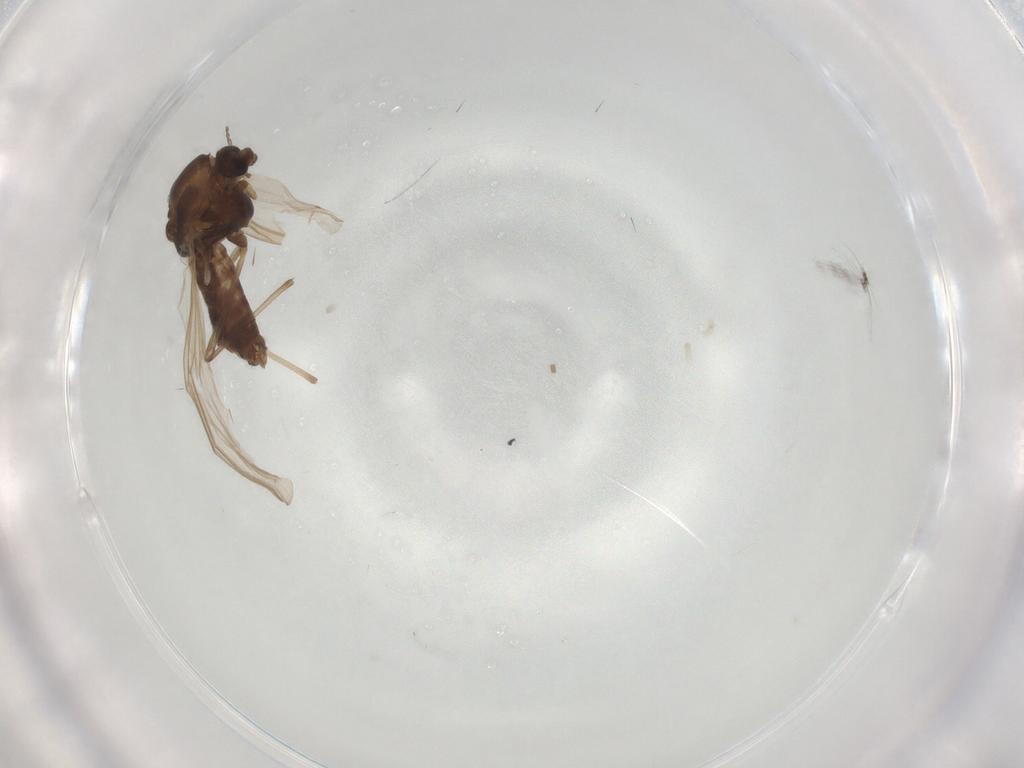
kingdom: Animalia
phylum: Arthropoda
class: Insecta
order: Diptera
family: Chironomidae
